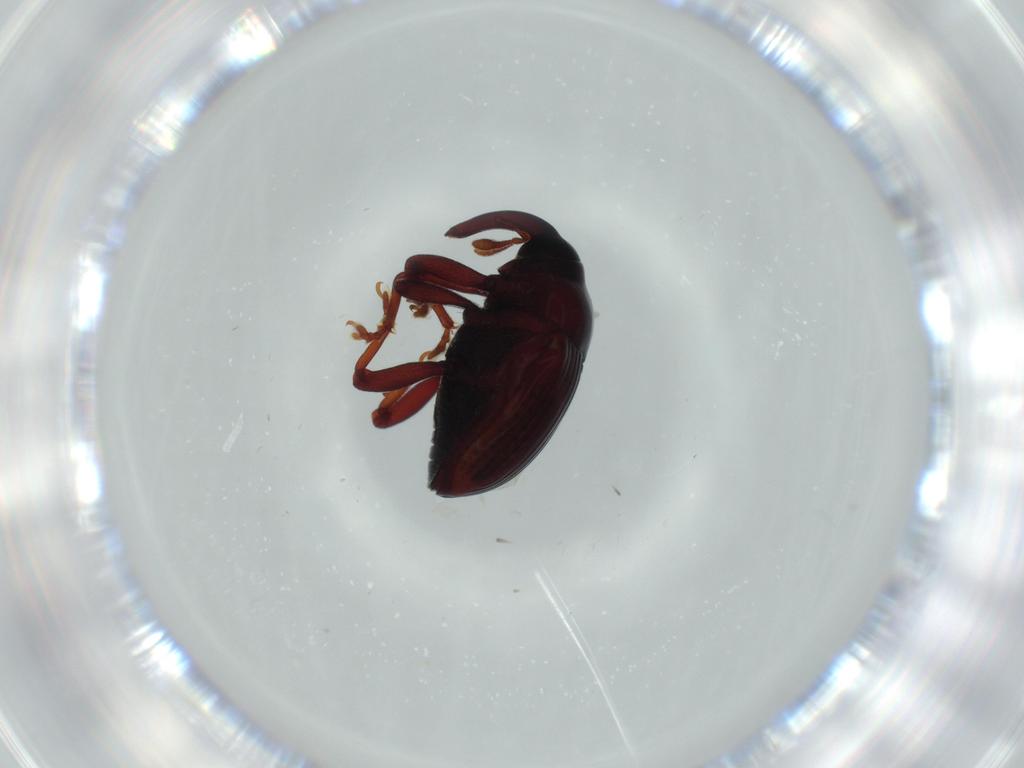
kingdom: Animalia
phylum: Arthropoda
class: Insecta
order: Coleoptera
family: Curculionidae
